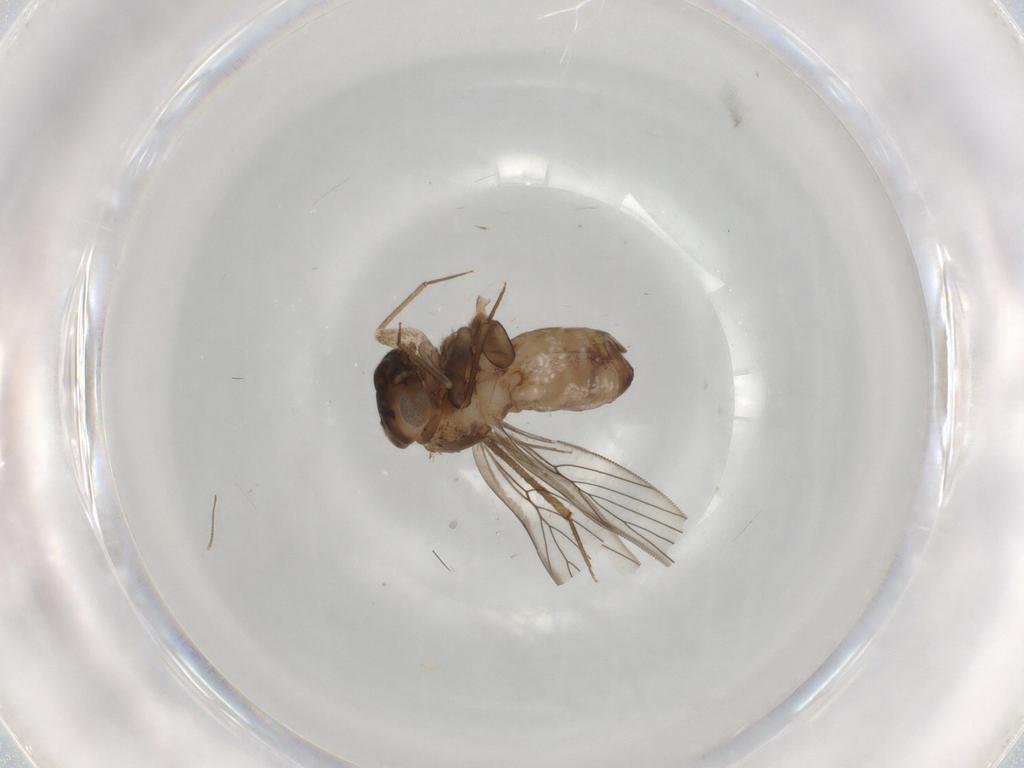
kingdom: Animalia
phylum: Arthropoda
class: Insecta
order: Psocodea
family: Lepidopsocidae
